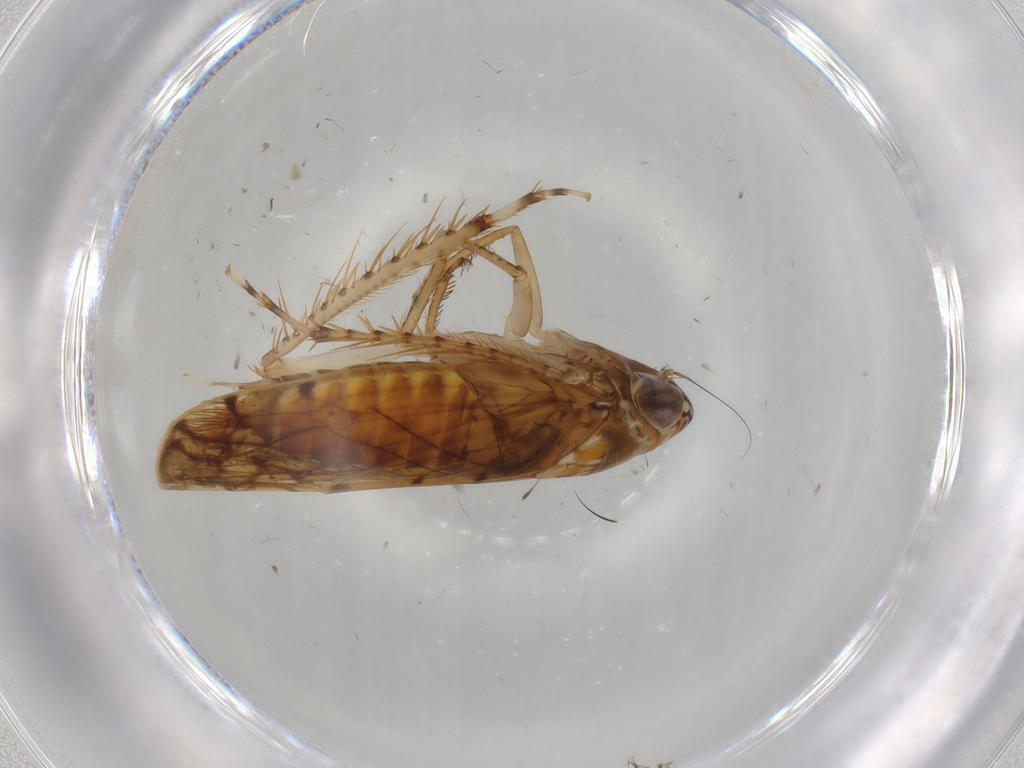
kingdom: Animalia
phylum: Arthropoda
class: Insecta
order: Hemiptera
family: Cicadellidae
